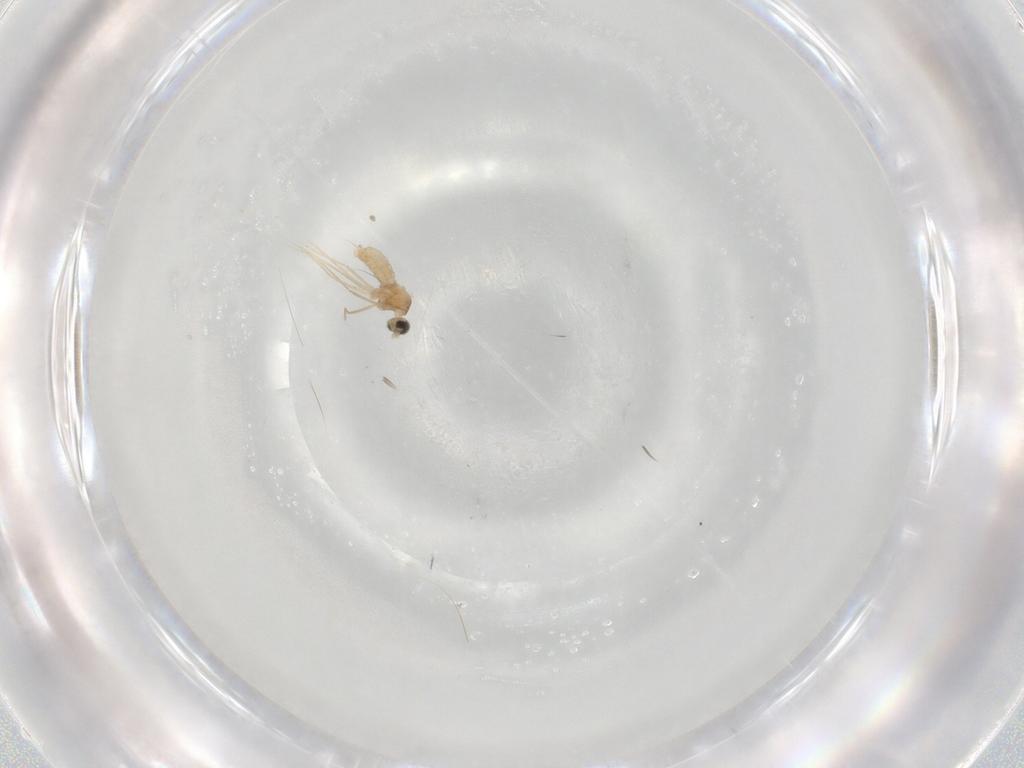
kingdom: Animalia
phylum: Arthropoda
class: Insecta
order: Diptera
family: Cecidomyiidae
